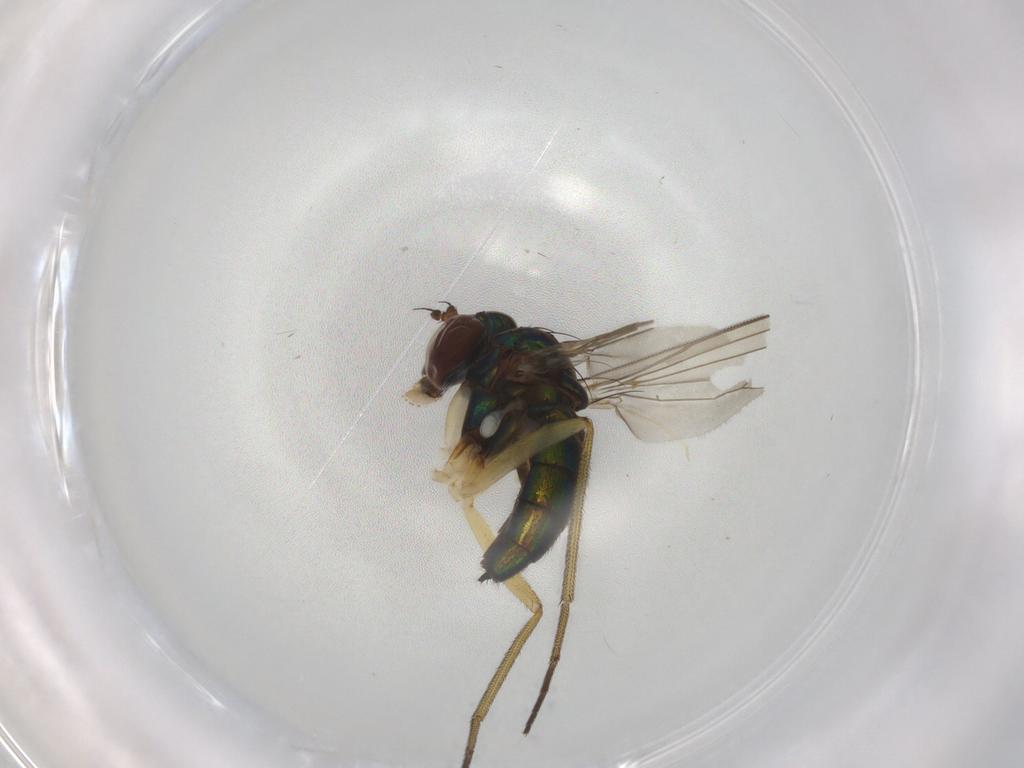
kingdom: Animalia
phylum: Arthropoda
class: Insecta
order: Diptera
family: Dolichopodidae
